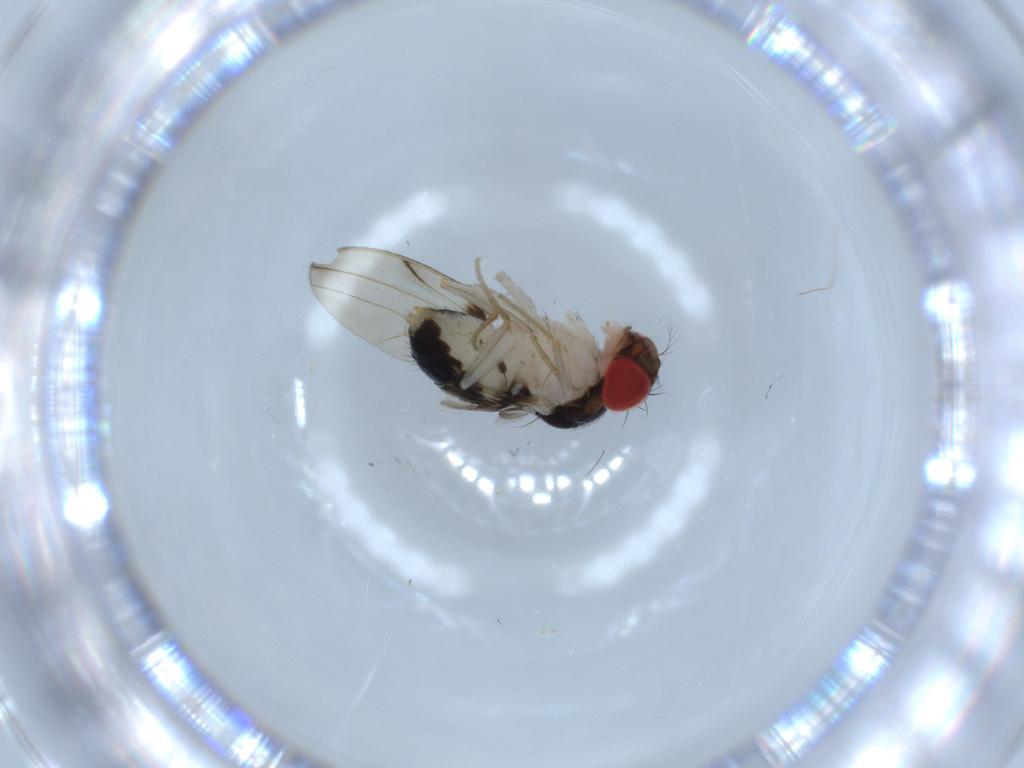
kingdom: Animalia
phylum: Arthropoda
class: Insecta
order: Diptera
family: Drosophilidae
